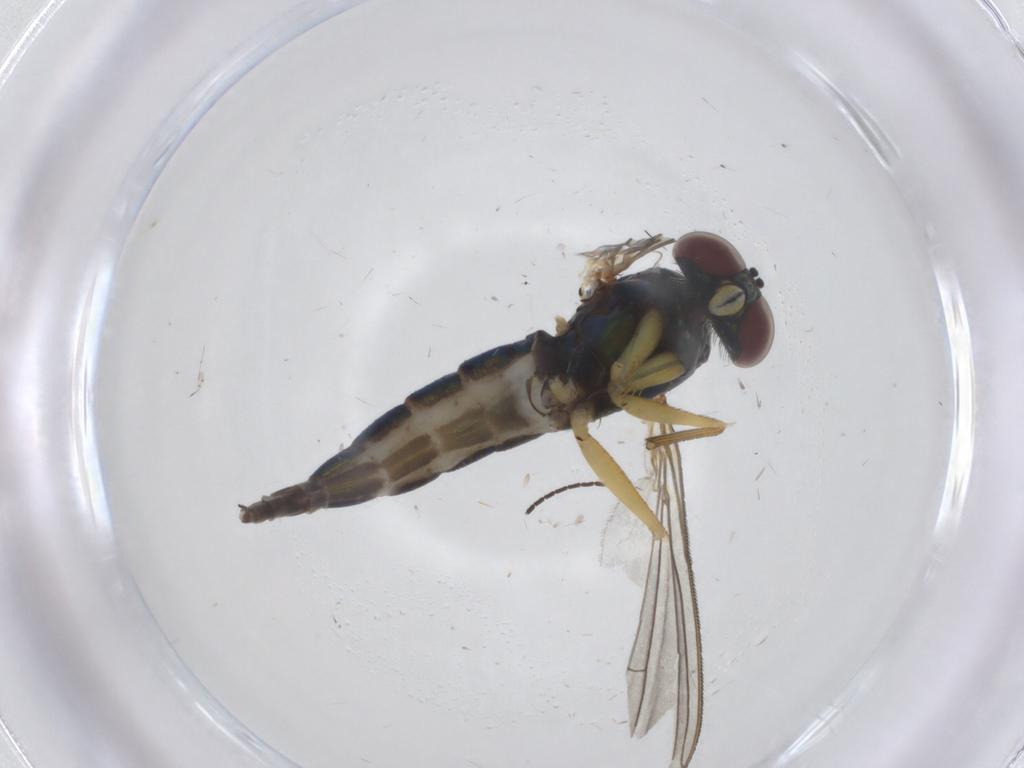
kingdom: Animalia
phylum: Arthropoda
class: Insecta
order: Diptera
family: Dolichopodidae
